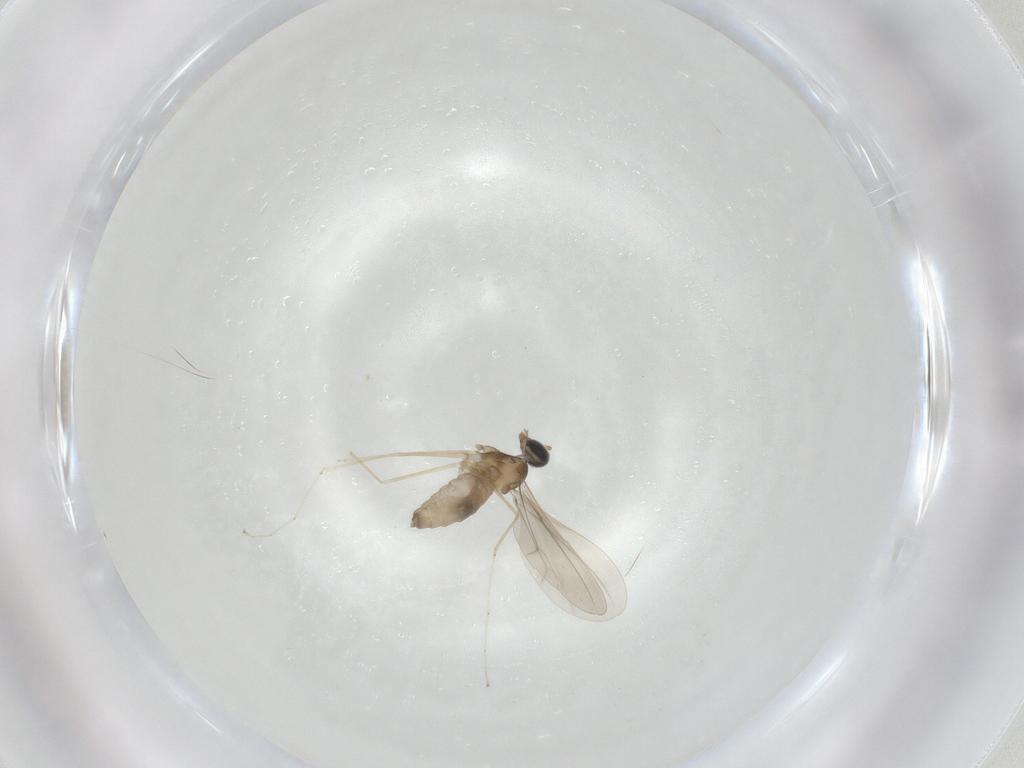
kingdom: Animalia
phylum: Arthropoda
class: Insecta
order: Diptera
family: Cecidomyiidae
